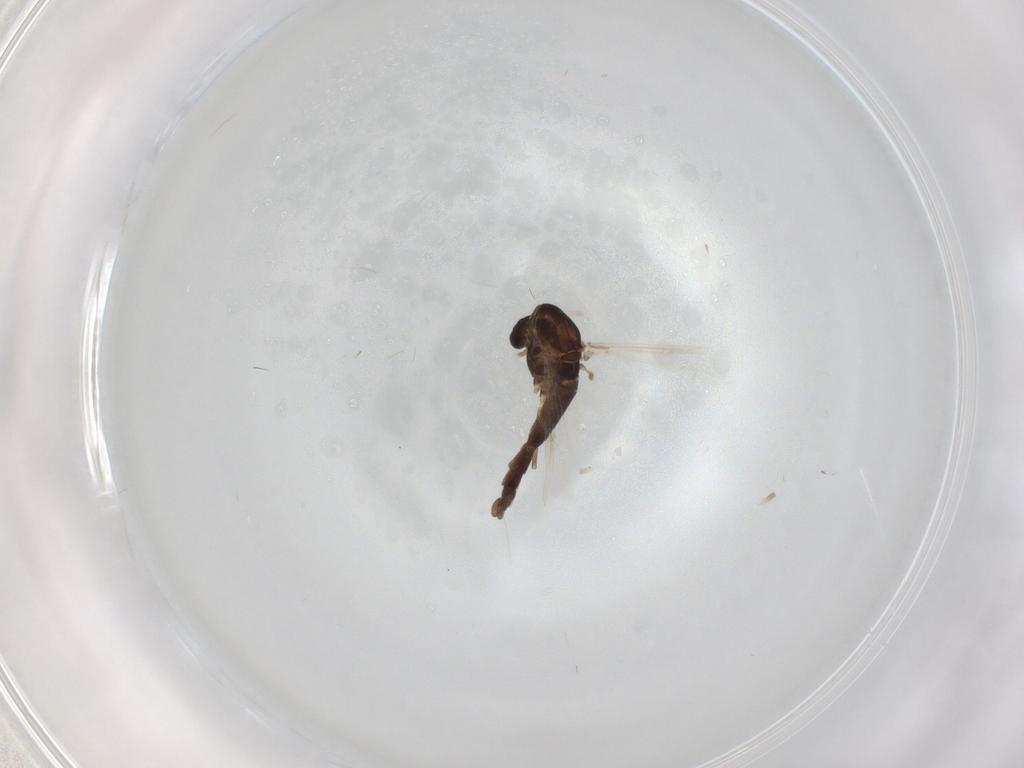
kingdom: Animalia
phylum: Arthropoda
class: Insecta
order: Diptera
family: Chironomidae
